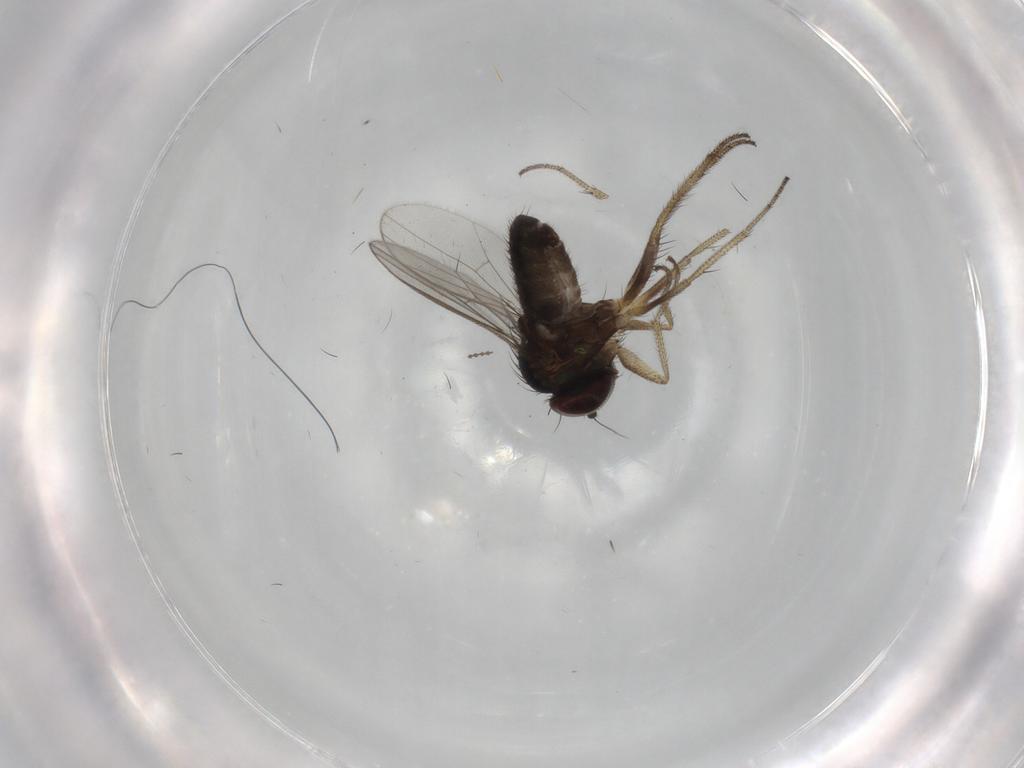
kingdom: Animalia
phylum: Arthropoda
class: Insecta
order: Diptera
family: Dolichopodidae
